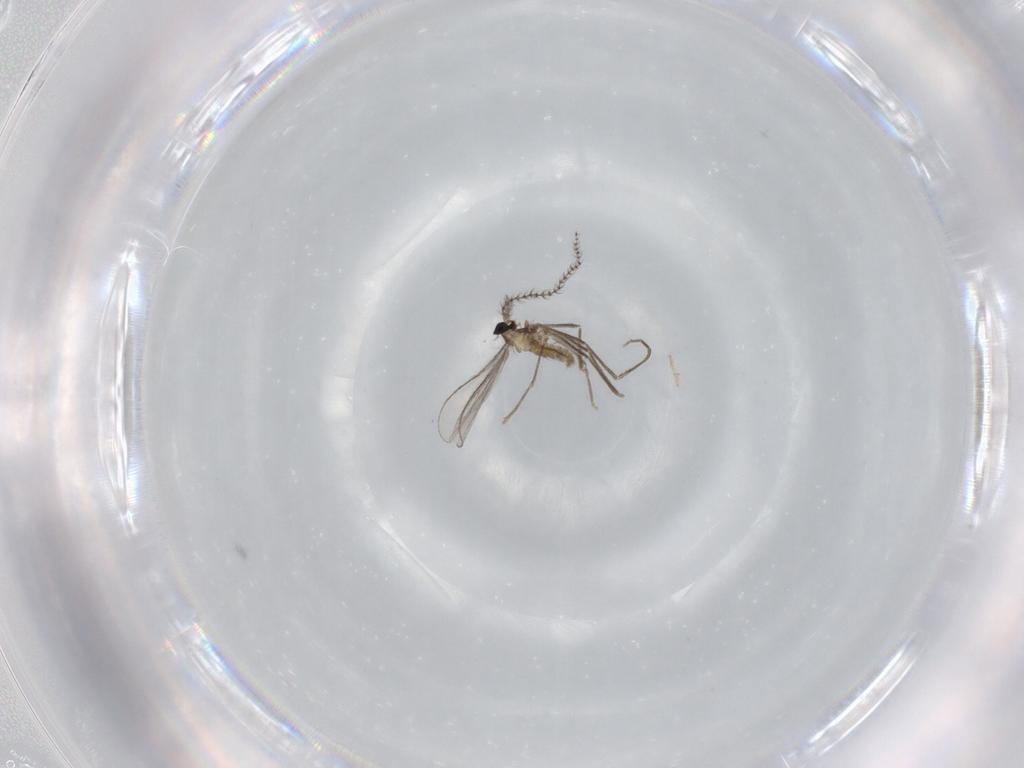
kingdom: Animalia
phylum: Arthropoda
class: Insecta
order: Diptera
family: Cecidomyiidae
